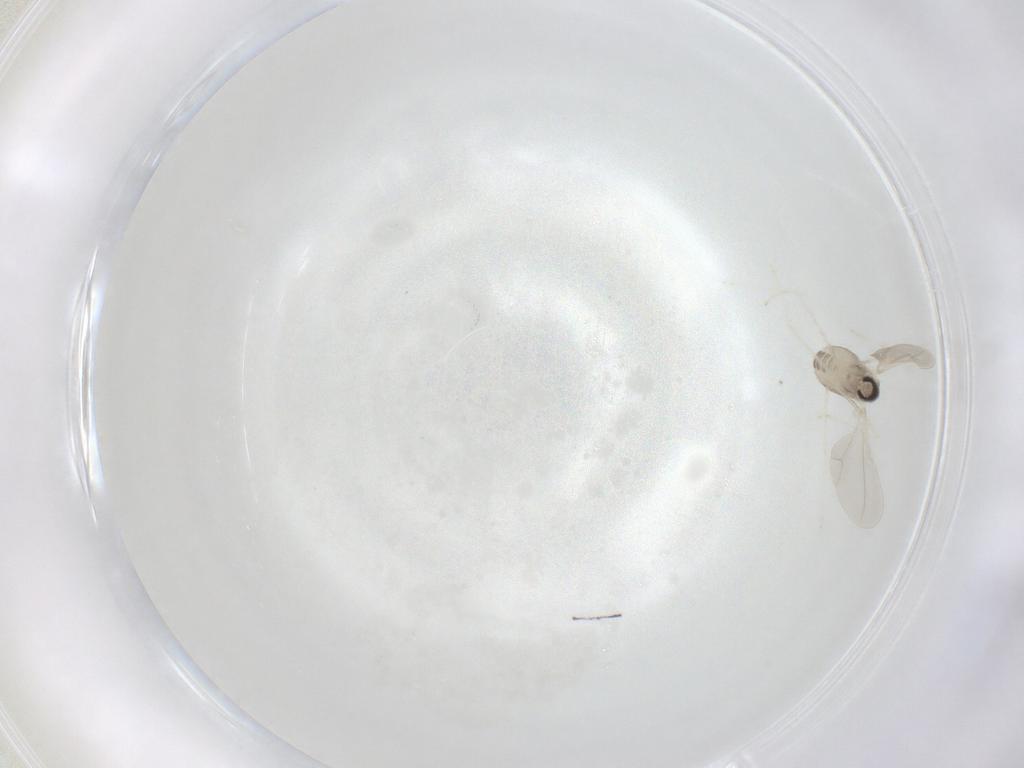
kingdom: Animalia
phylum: Arthropoda
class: Insecta
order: Diptera
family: Cecidomyiidae
